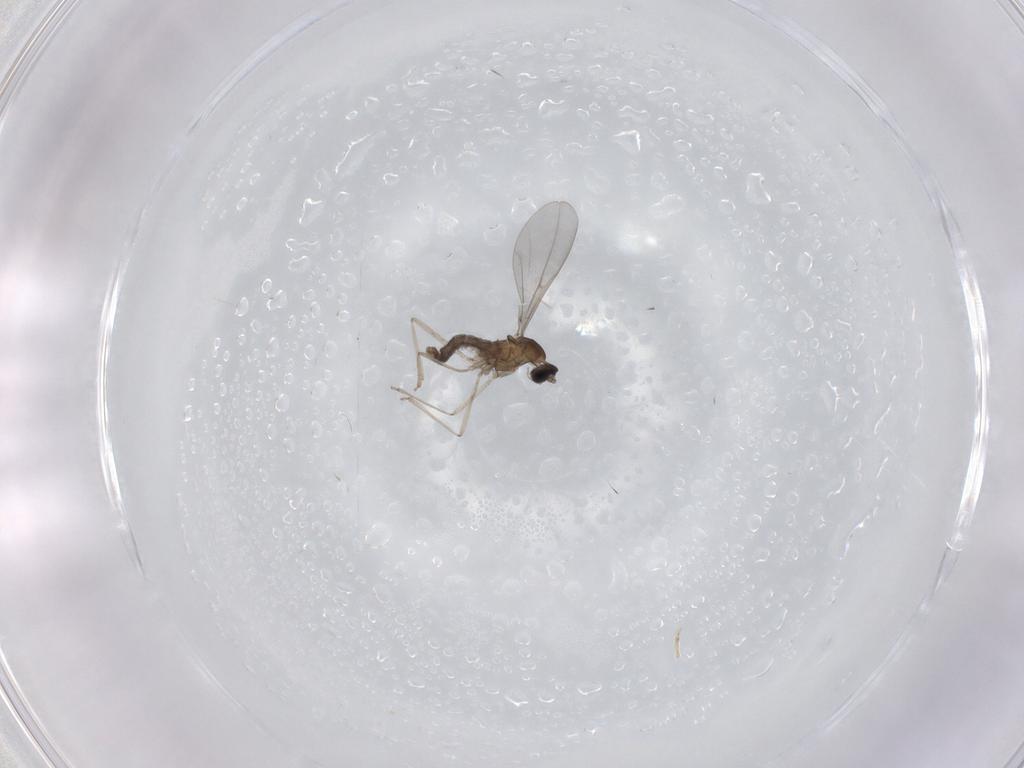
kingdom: Animalia
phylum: Arthropoda
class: Insecta
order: Diptera
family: Cecidomyiidae
